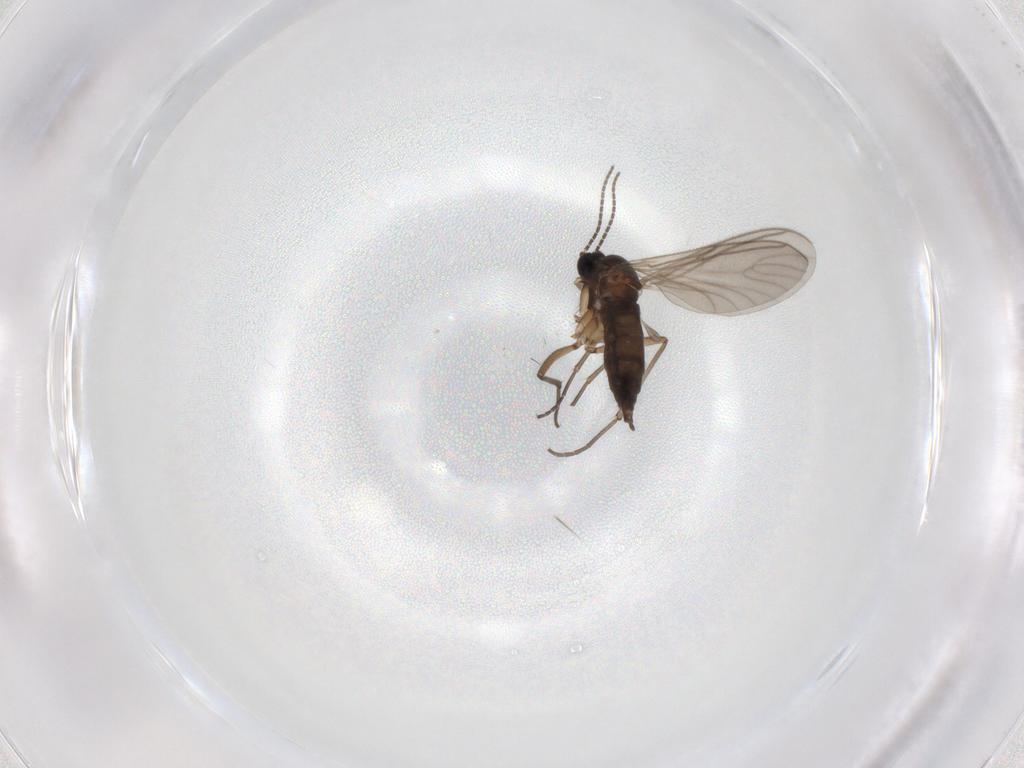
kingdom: Animalia
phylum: Arthropoda
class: Insecta
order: Diptera
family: Sciaridae
